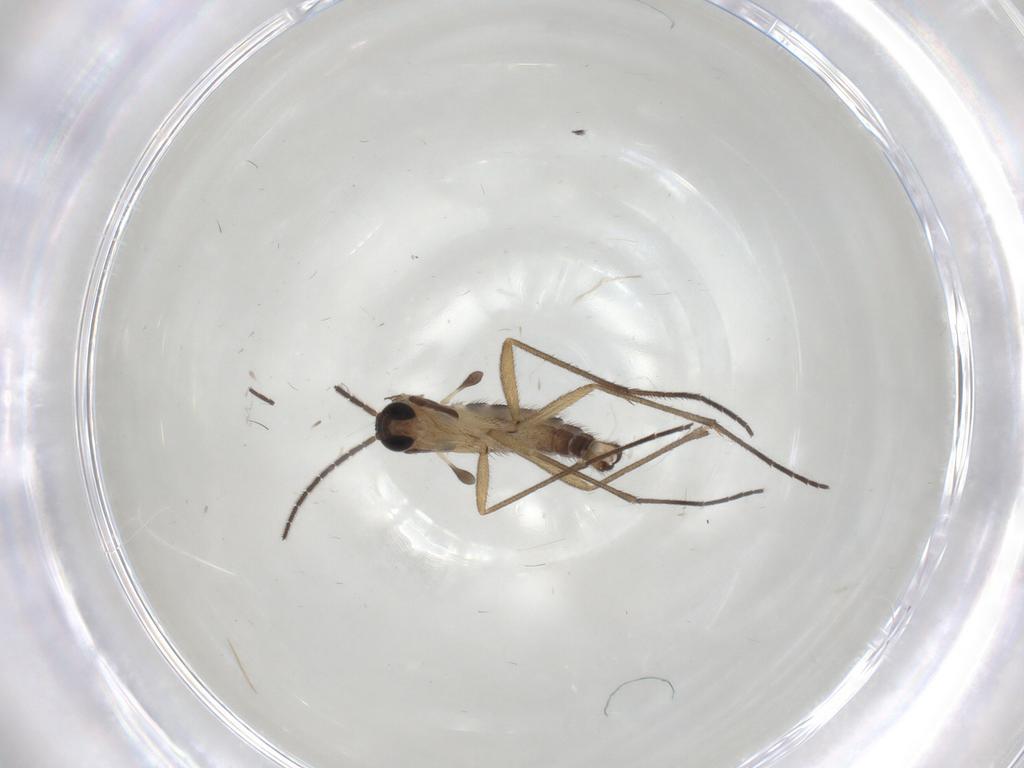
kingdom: Animalia
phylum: Arthropoda
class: Insecta
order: Diptera
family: Sciaridae
